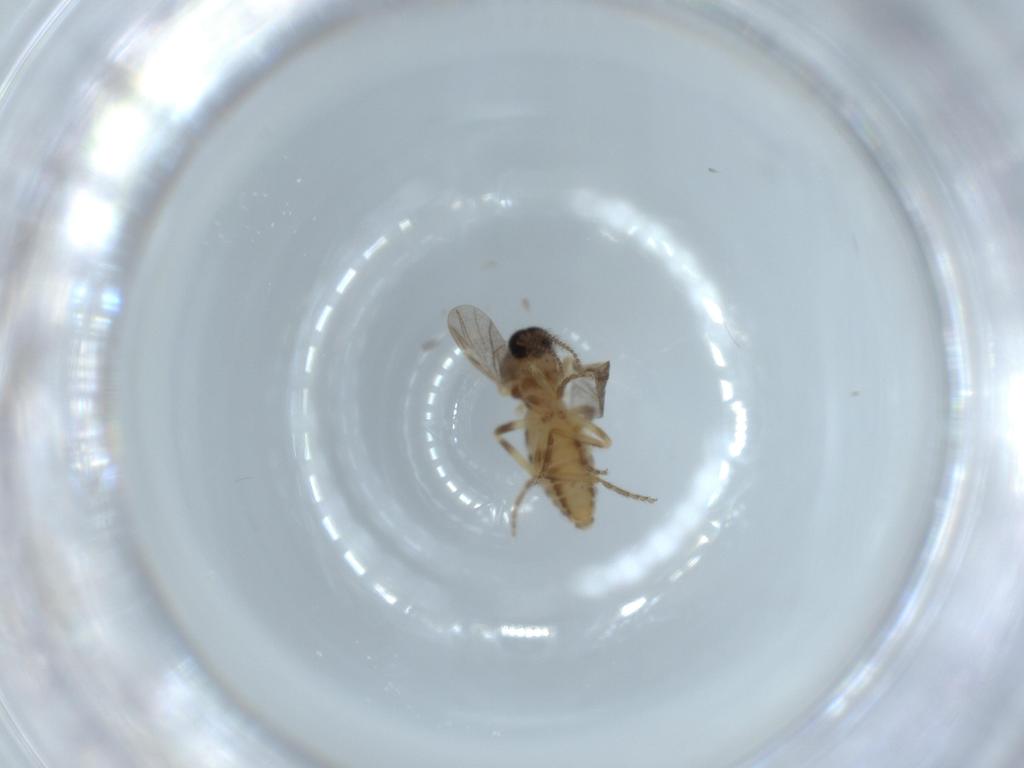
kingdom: Animalia
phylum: Arthropoda
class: Insecta
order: Diptera
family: Ceratopogonidae
